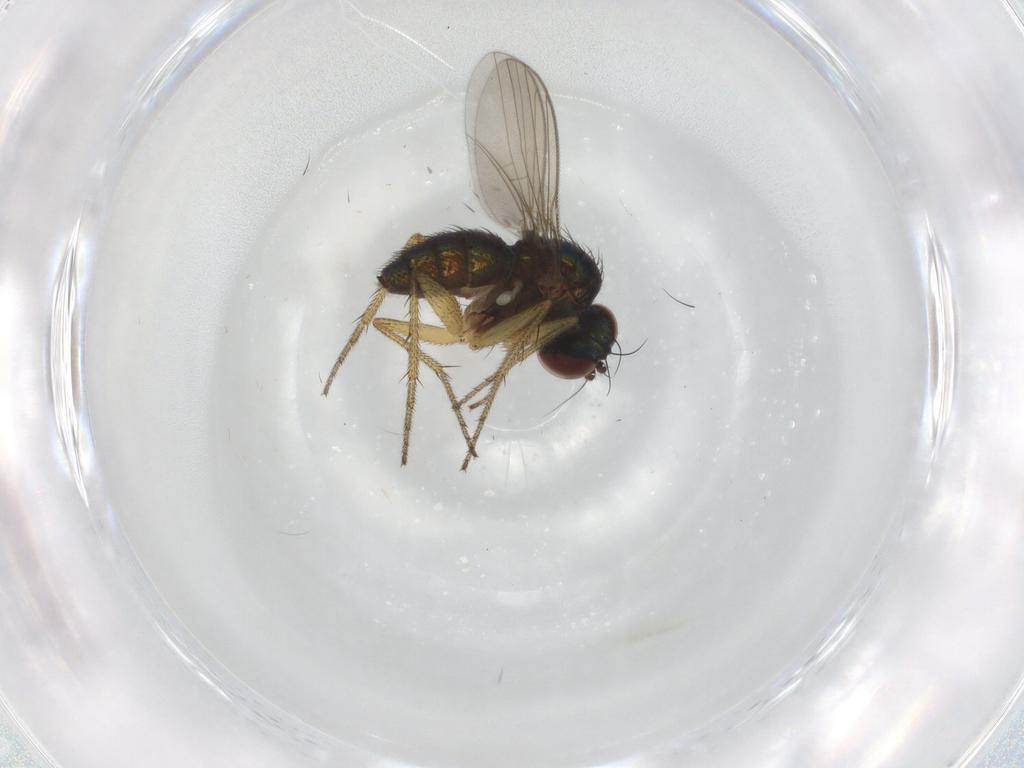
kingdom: Animalia
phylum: Arthropoda
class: Insecta
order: Diptera
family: Dolichopodidae
